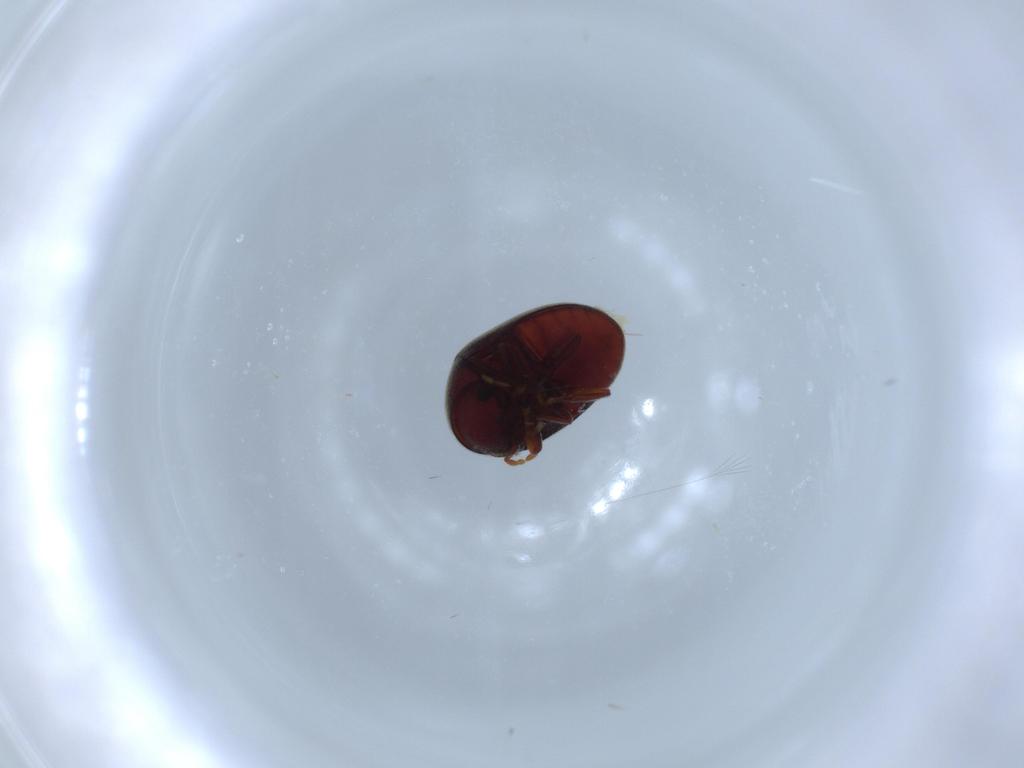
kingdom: Animalia
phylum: Arthropoda
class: Insecta
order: Coleoptera
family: Ptinidae
